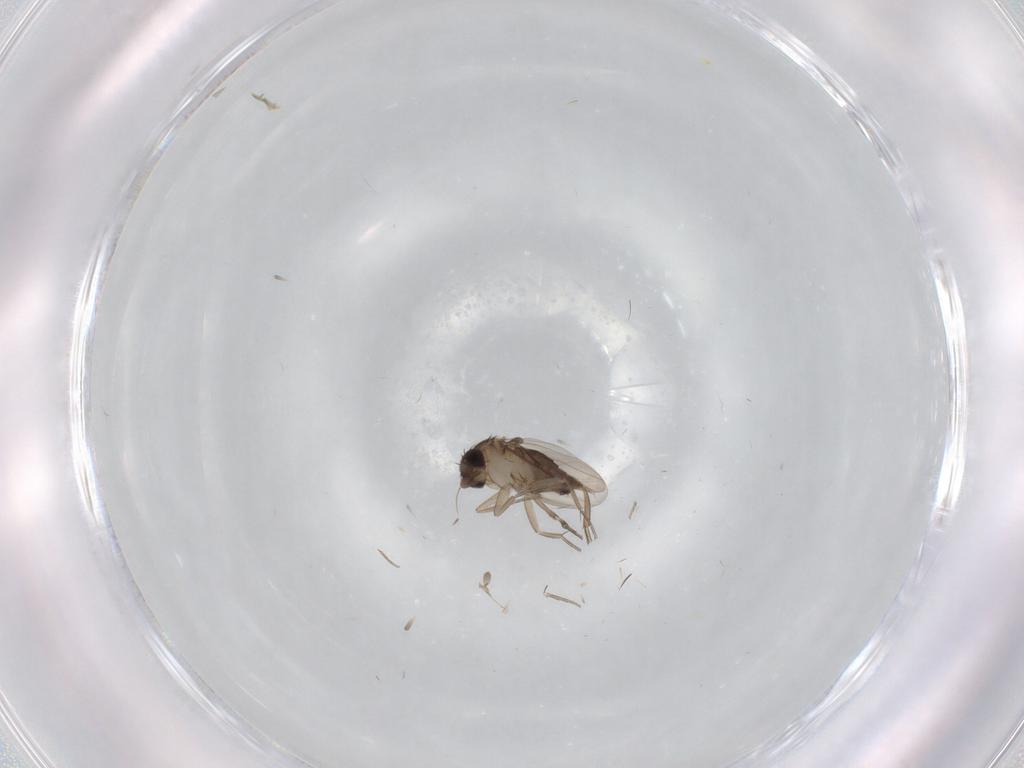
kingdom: Animalia
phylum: Arthropoda
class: Insecta
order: Diptera
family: Phoridae
